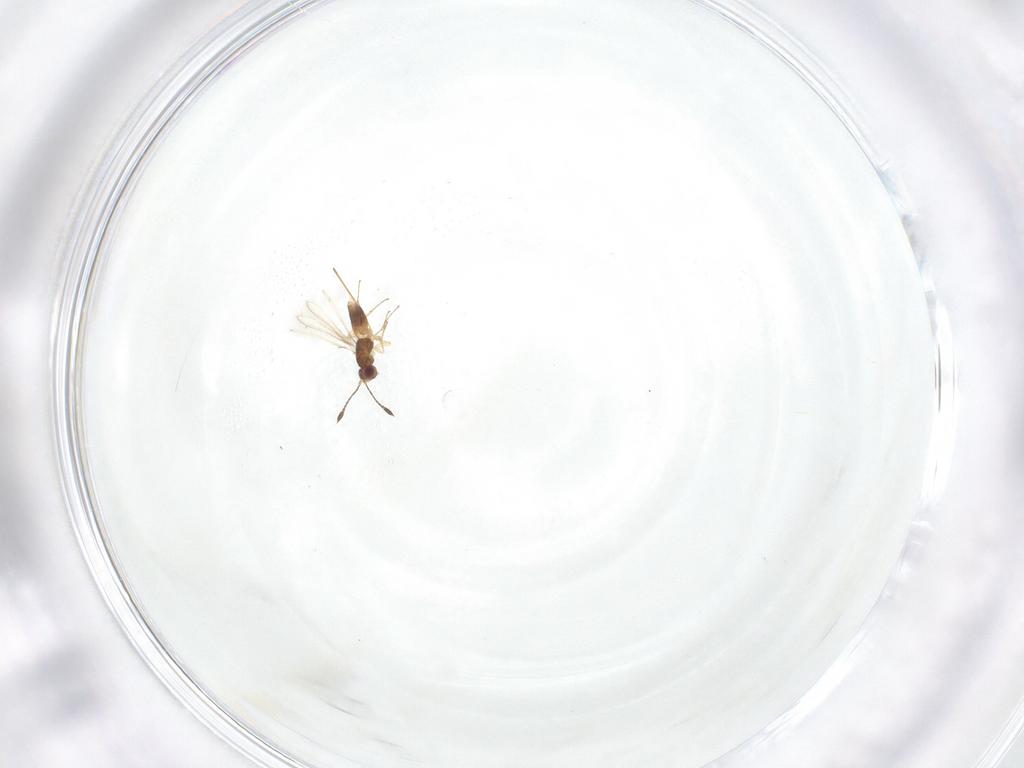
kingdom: Animalia
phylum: Arthropoda
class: Insecta
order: Hymenoptera
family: Mymaridae
